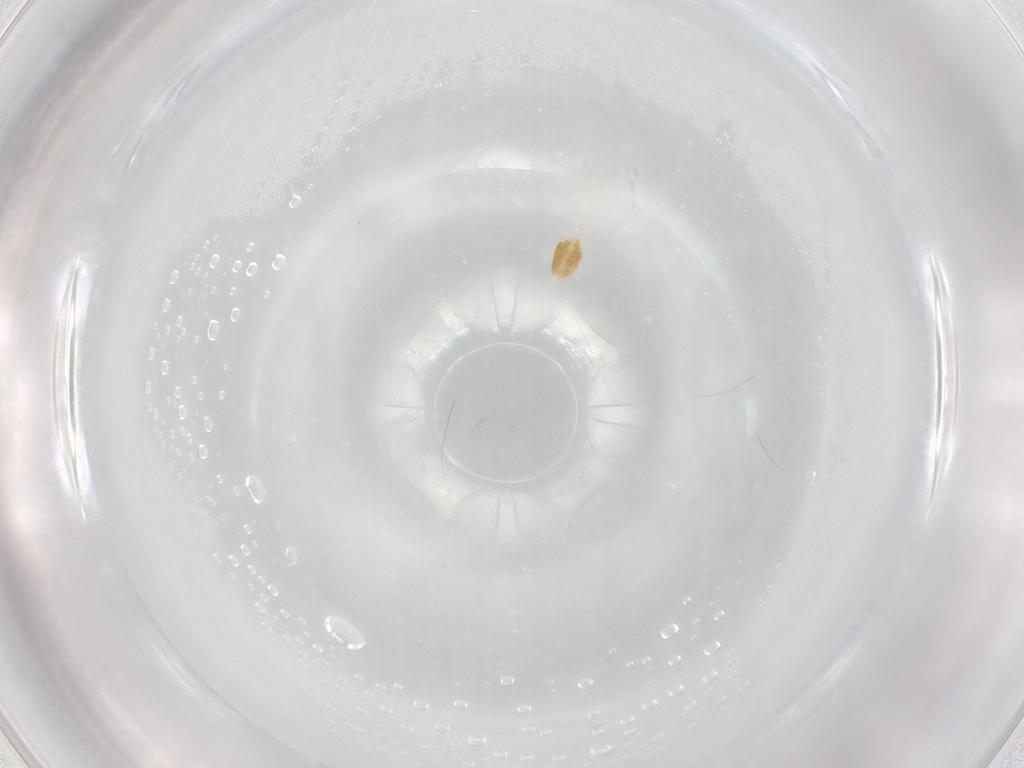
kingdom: Animalia
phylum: Arthropoda
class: Arachnida
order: Trombidiformes
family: Eupodidae
